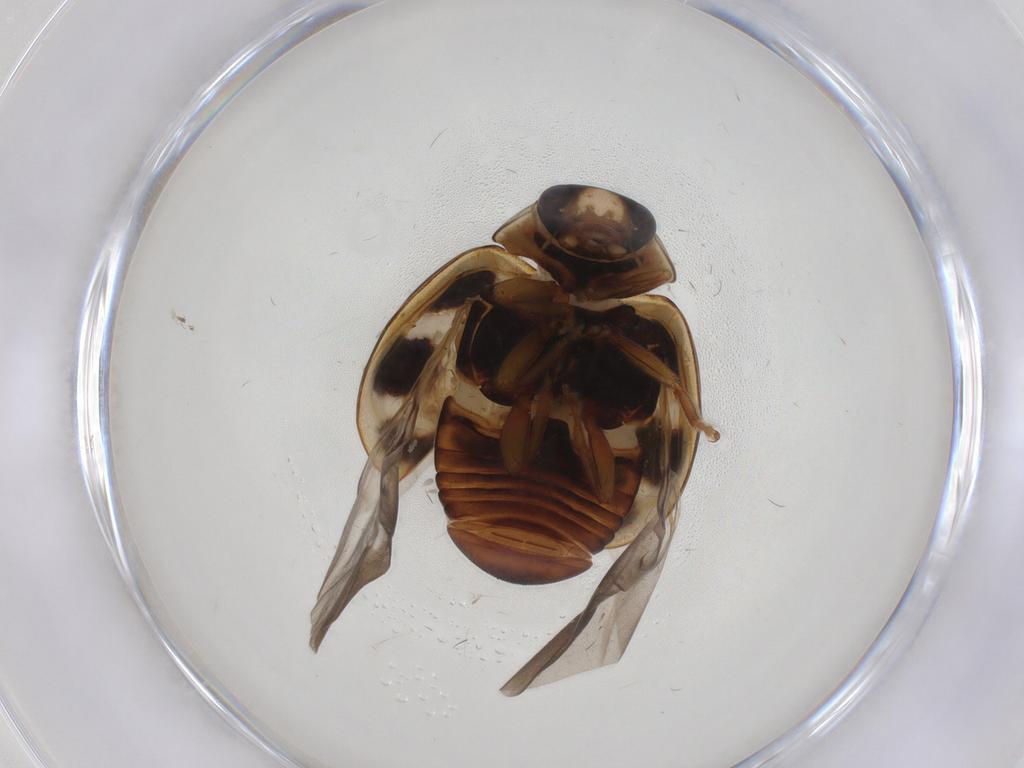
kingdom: Animalia
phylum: Arthropoda
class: Insecta
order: Coleoptera
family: Coccinellidae
